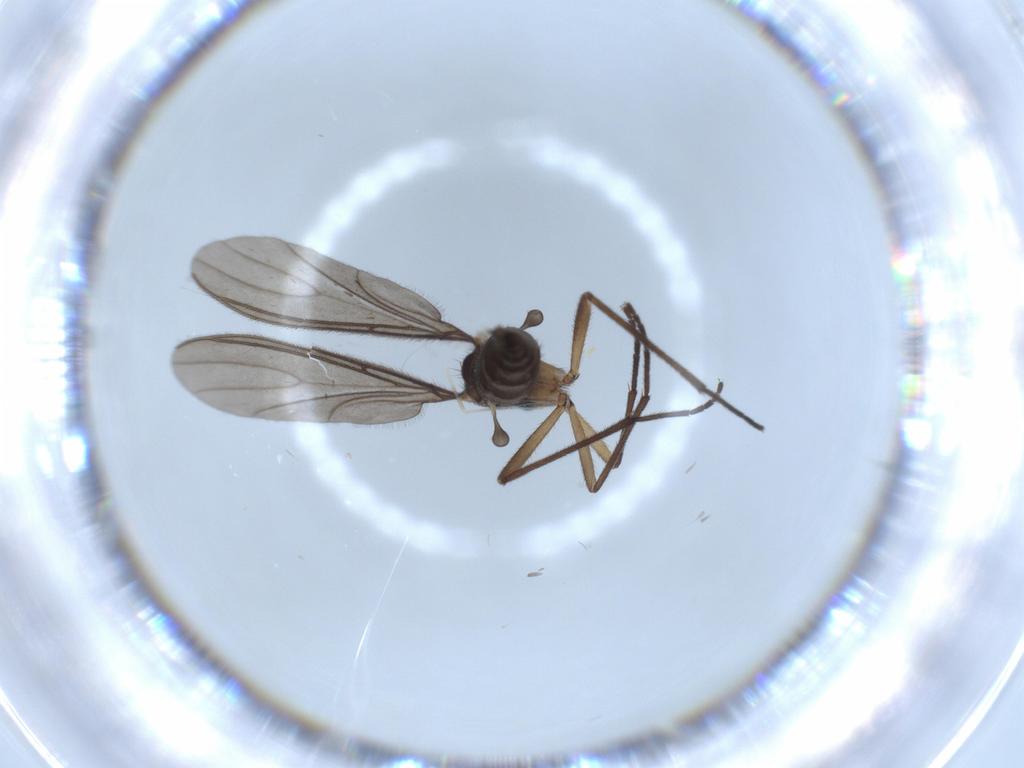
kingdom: Animalia
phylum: Arthropoda
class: Insecta
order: Diptera
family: Sciaridae
